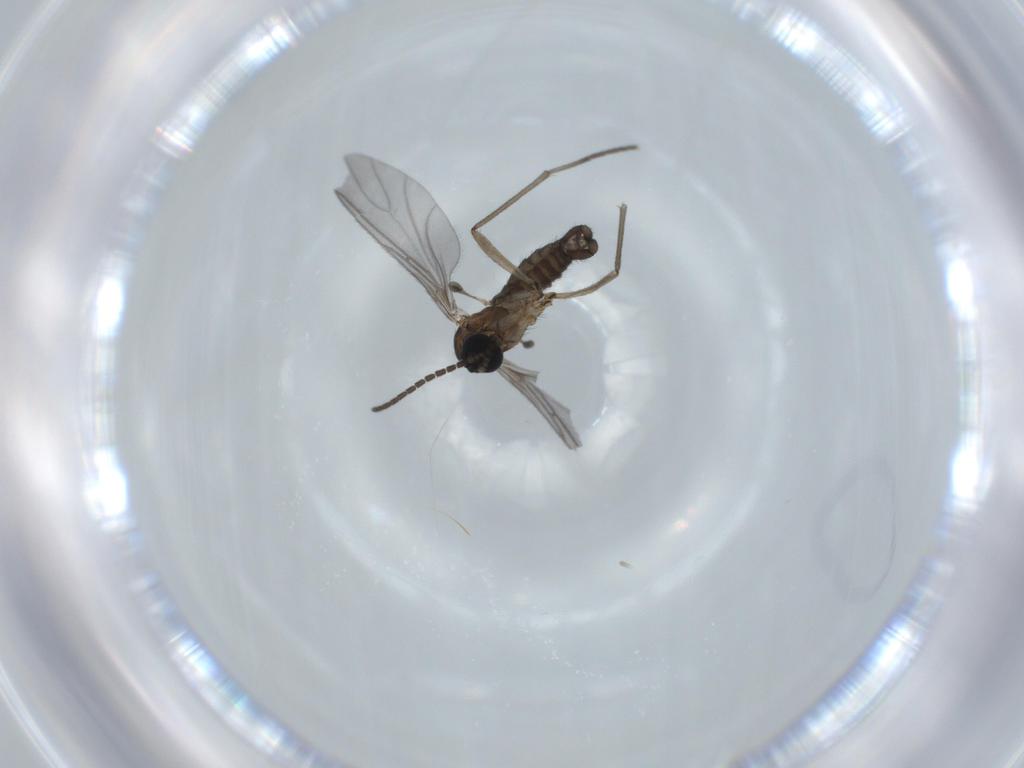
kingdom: Animalia
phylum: Arthropoda
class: Insecta
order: Diptera
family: Sciaridae
